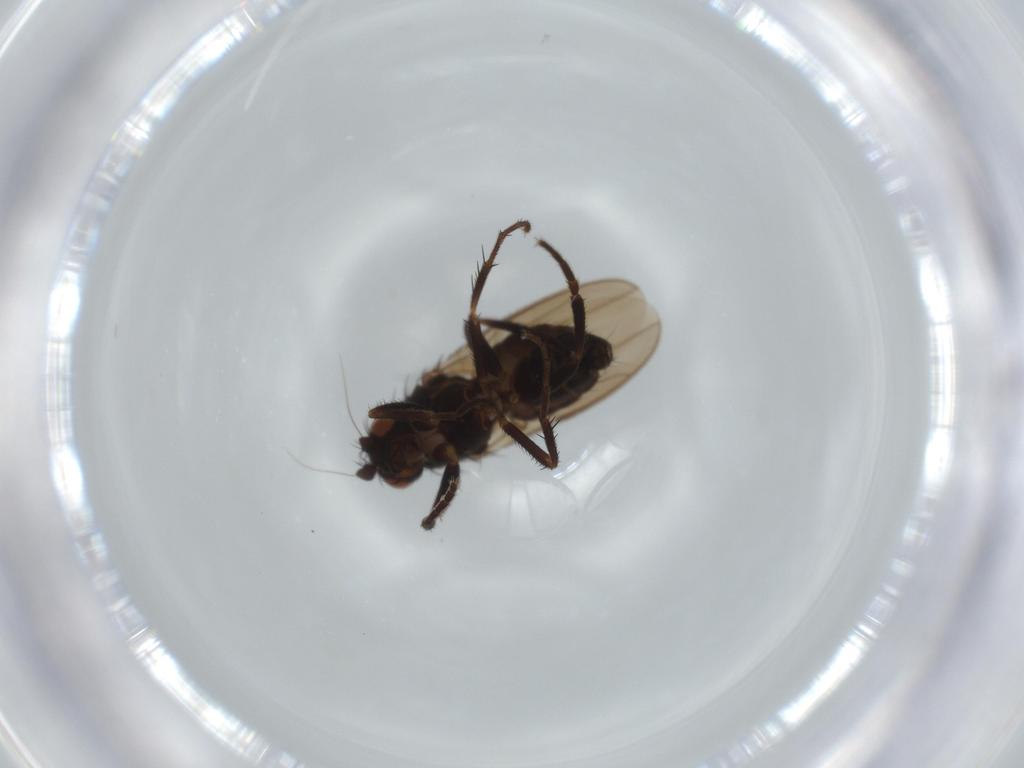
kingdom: Animalia
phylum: Arthropoda
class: Insecta
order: Diptera
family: Sphaeroceridae
